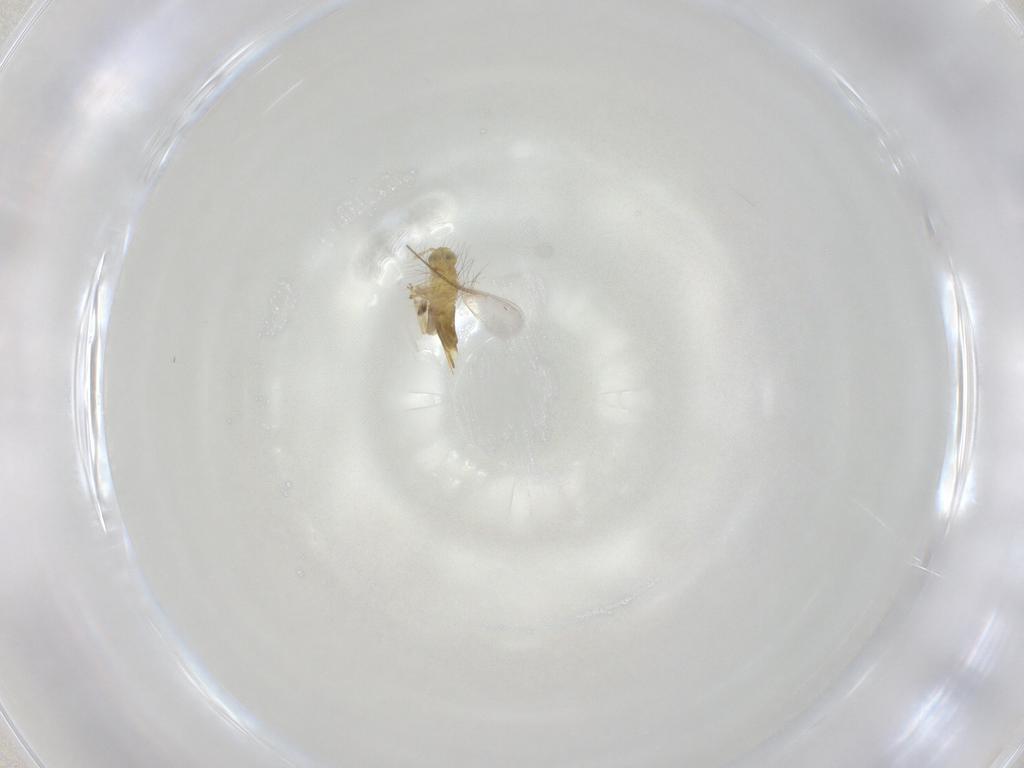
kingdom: Animalia
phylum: Arthropoda
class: Insecta
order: Hymenoptera
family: Aphelinidae
